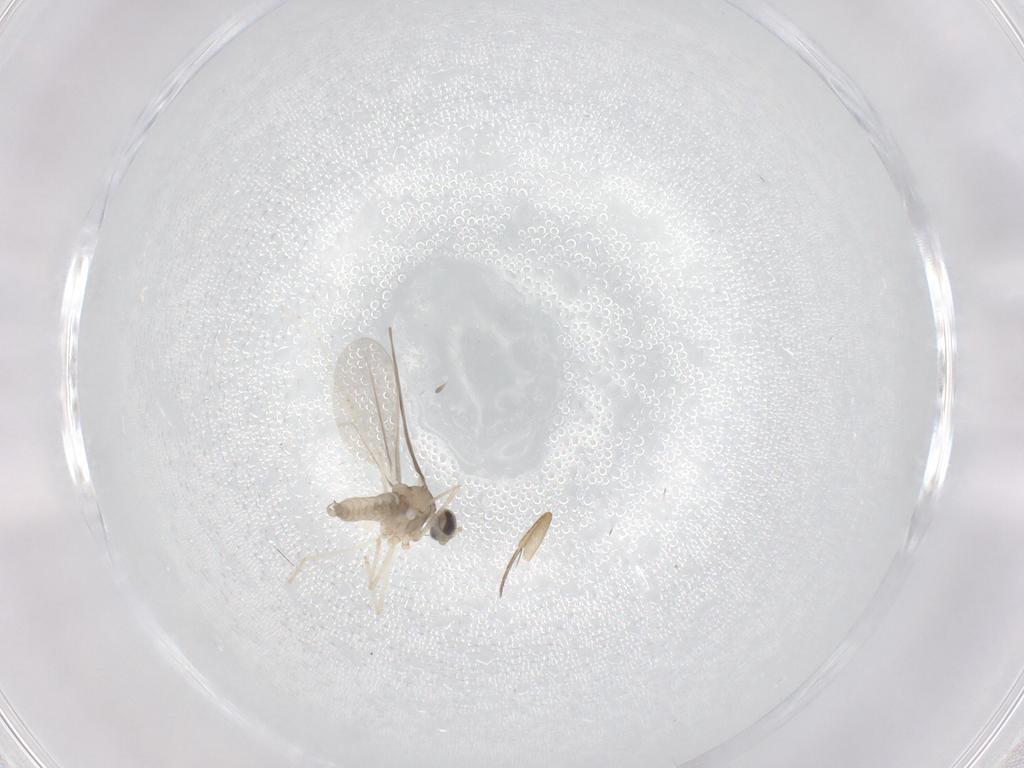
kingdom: Animalia
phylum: Arthropoda
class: Insecta
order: Diptera
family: Cecidomyiidae
